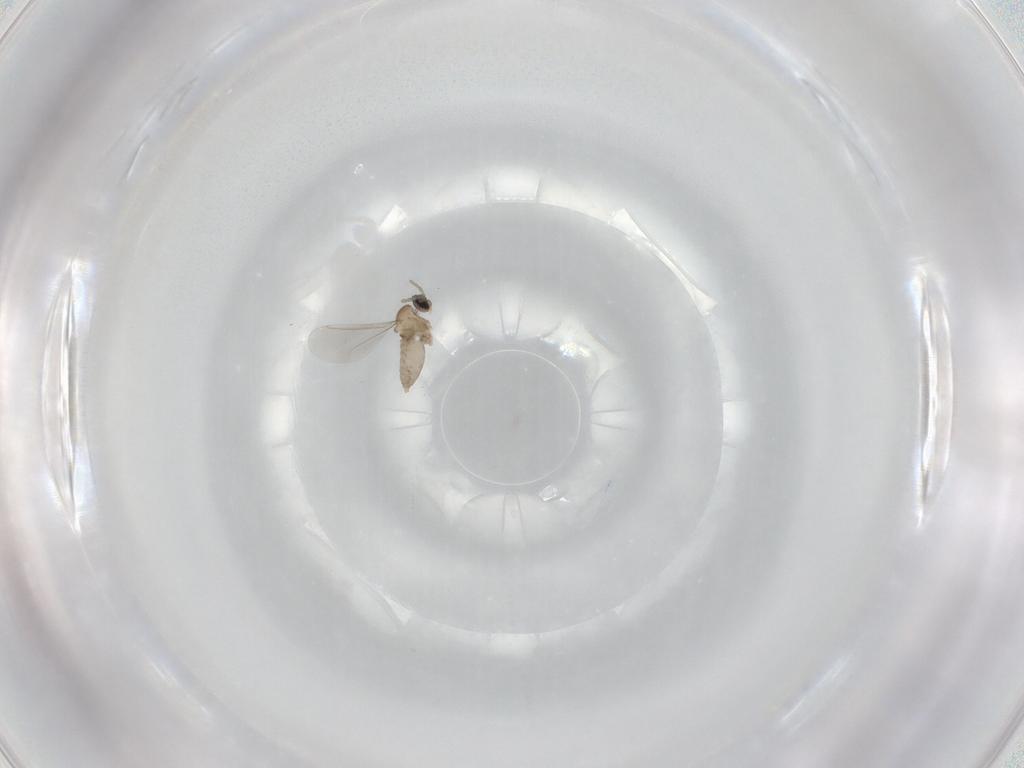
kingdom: Animalia
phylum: Arthropoda
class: Insecta
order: Diptera
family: Cecidomyiidae
